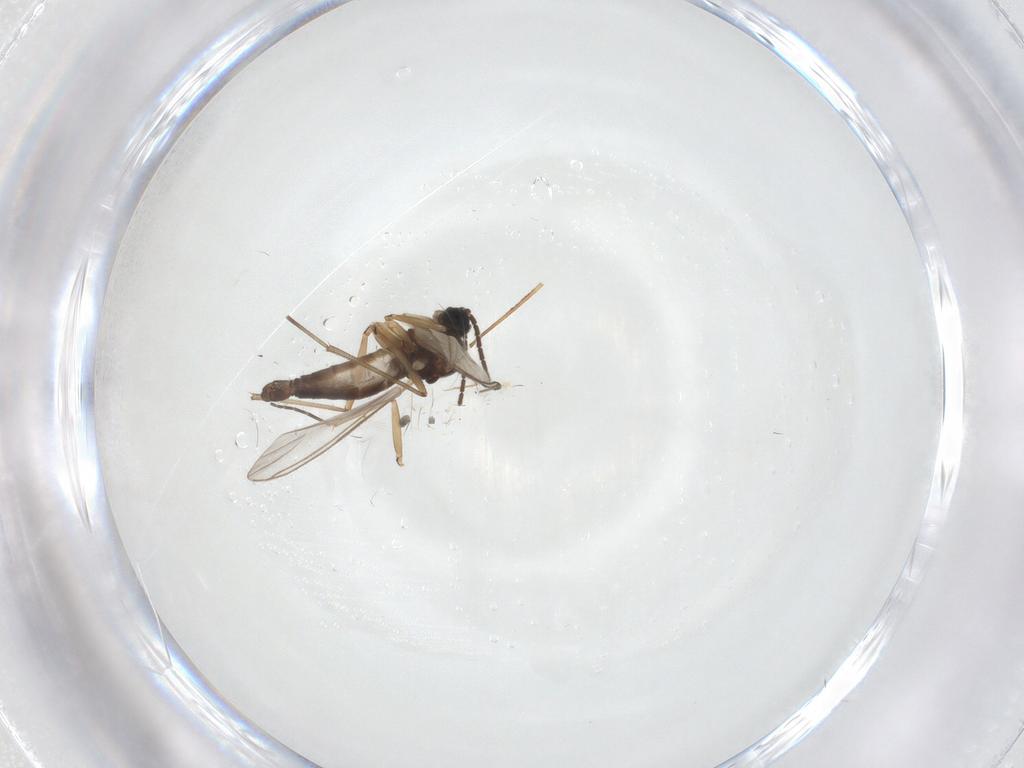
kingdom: Animalia
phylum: Arthropoda
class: Insecta
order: Diptera
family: Sciaridae
